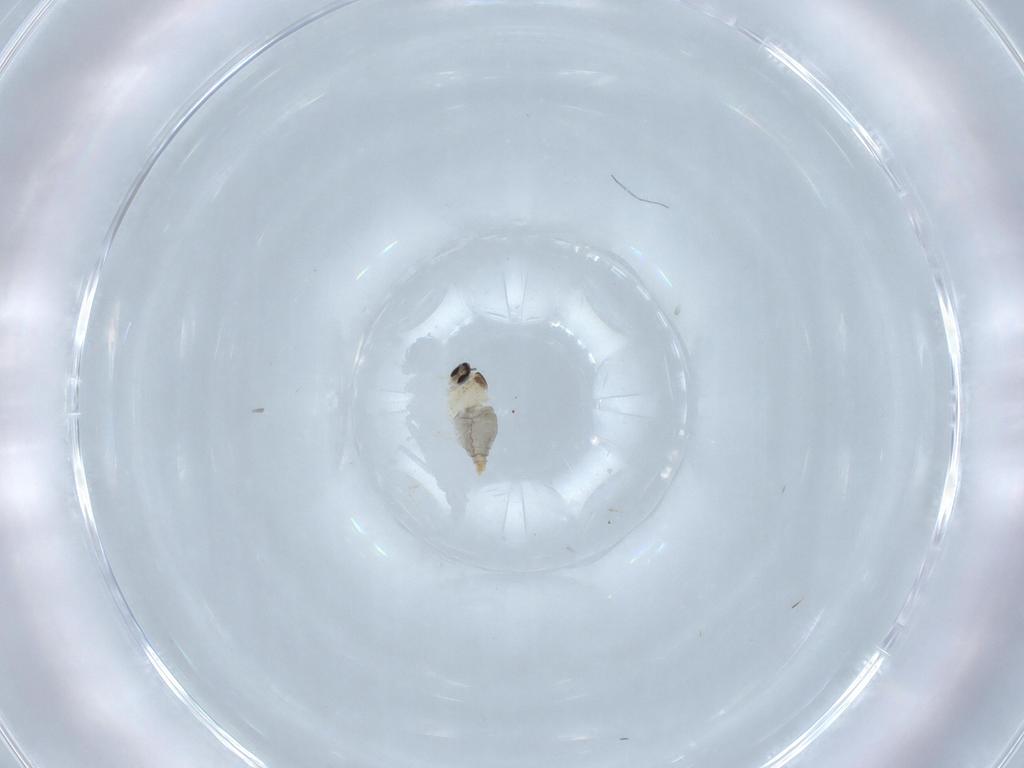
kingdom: Animalia
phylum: Arthropoda
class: Insecta
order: Diptera
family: Cecidomyiidae
